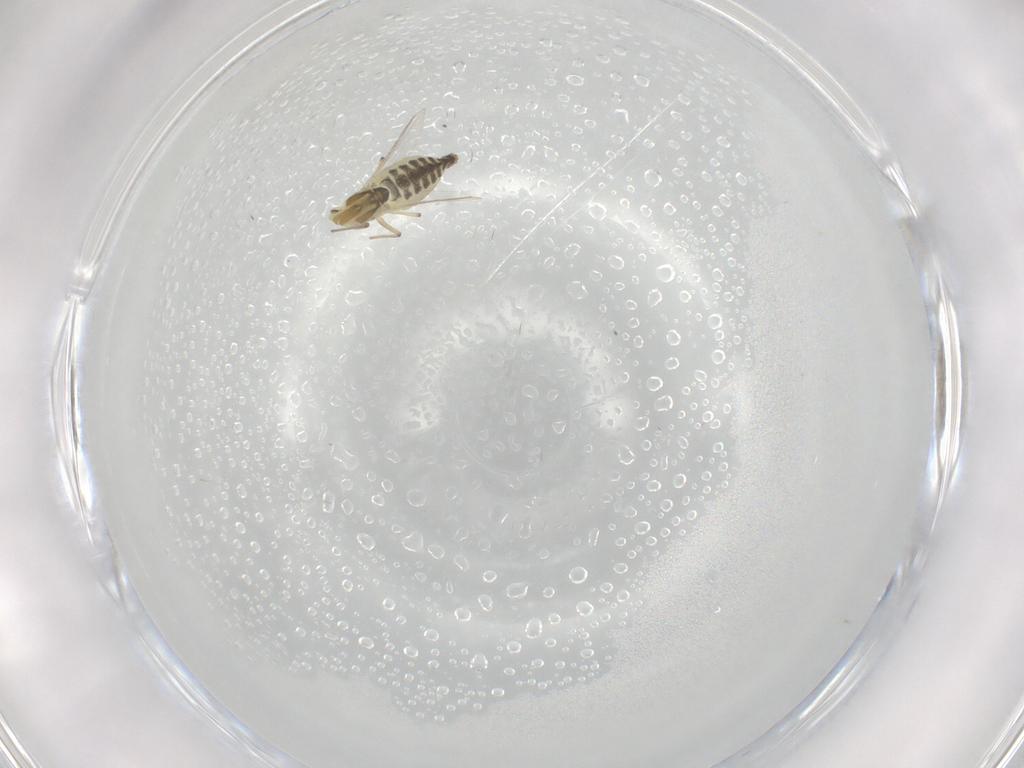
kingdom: Animalia
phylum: Arthropoda
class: Insecta
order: Diptera
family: Chironomidae
